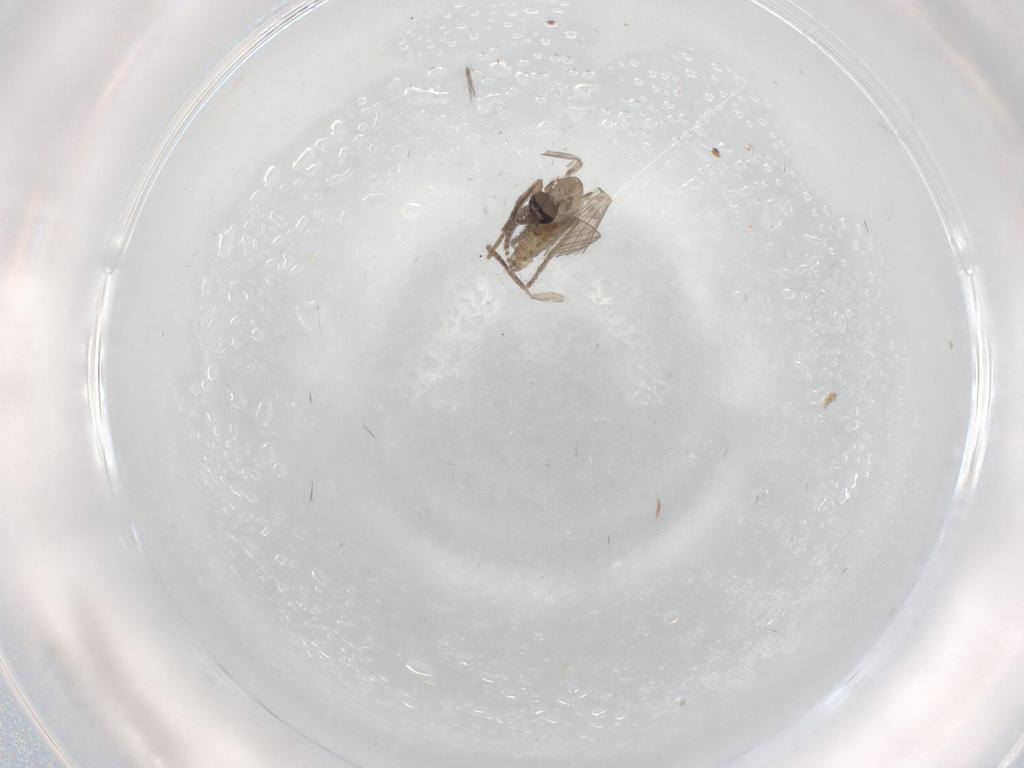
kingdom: Animalia
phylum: Arthropoda
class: Insecta
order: Diptera
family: Psychodidae
